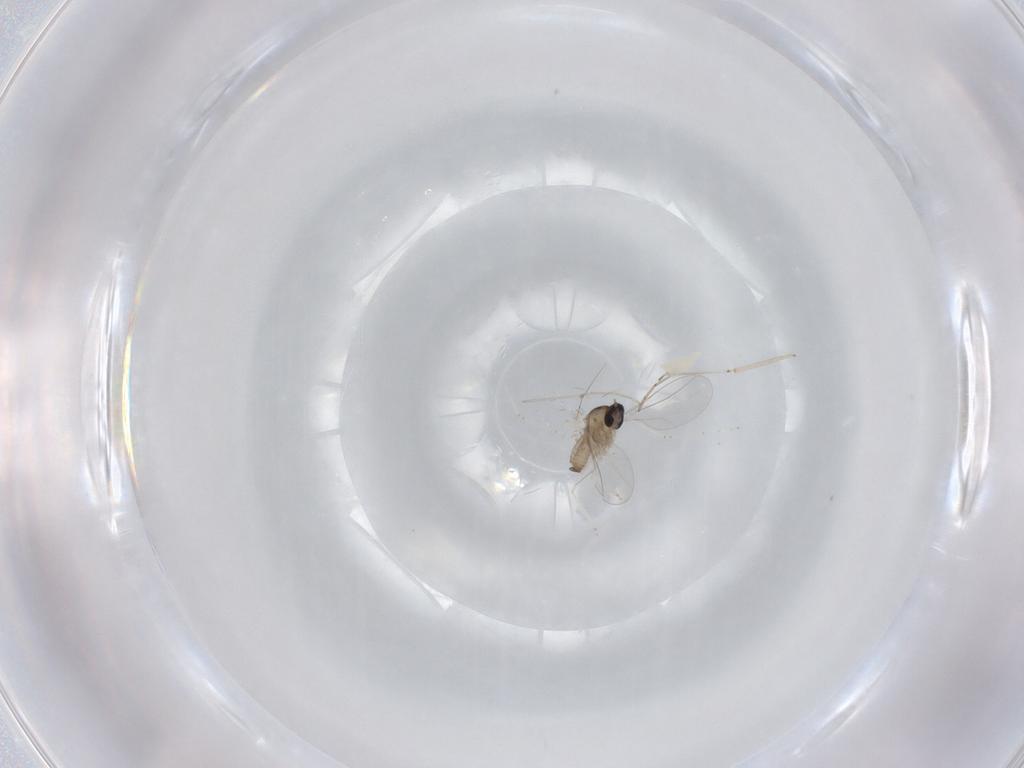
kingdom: Animalia
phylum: Arthropoda
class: Insecta
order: Diptera
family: Cecidomyiidae
